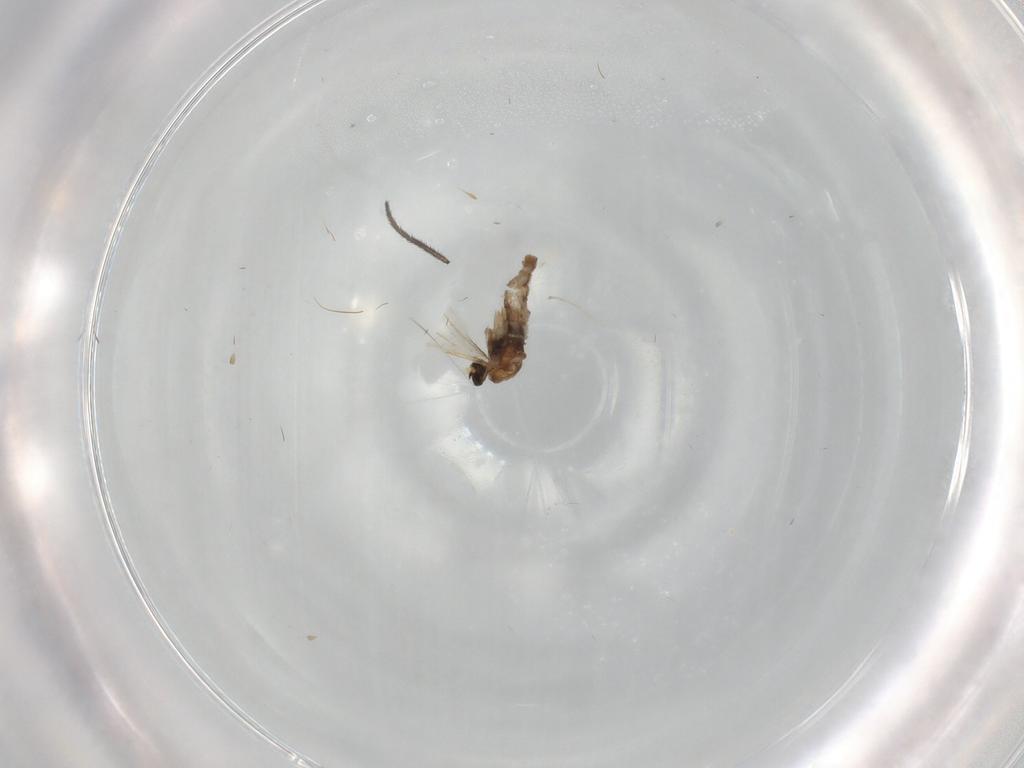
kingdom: Animalia
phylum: Arthropoda
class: Insecta
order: Diptera
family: Sciaridae
